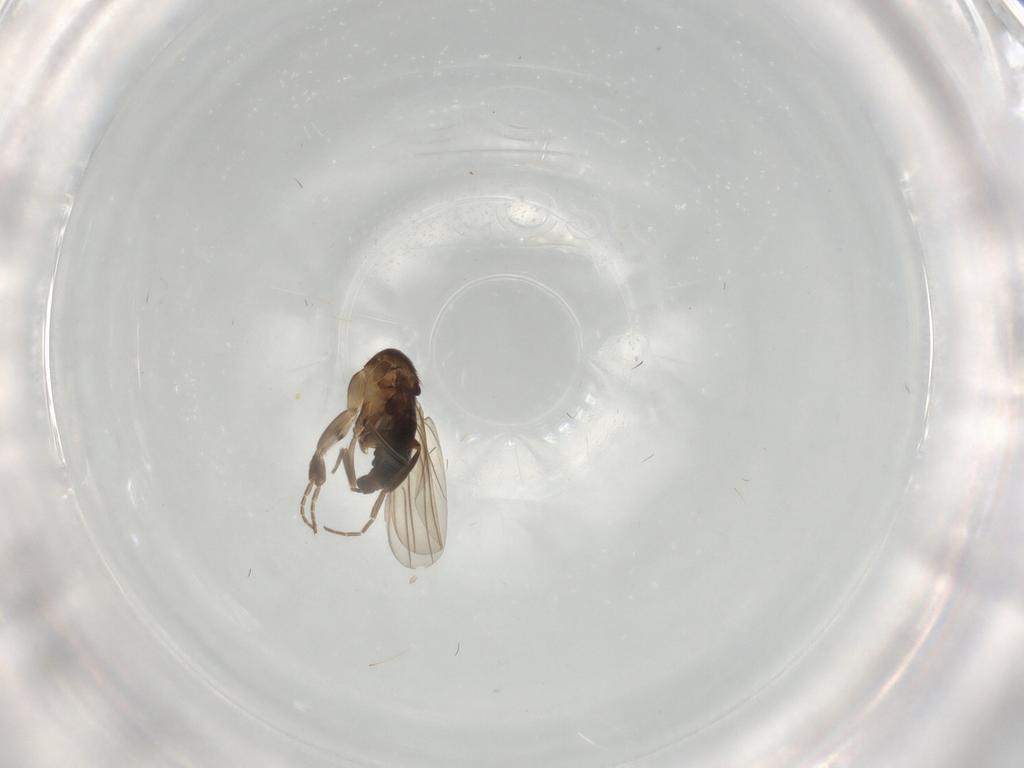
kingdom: Animalia
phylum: Arthropoda
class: Insecta
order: Diptera
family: Phoridae
